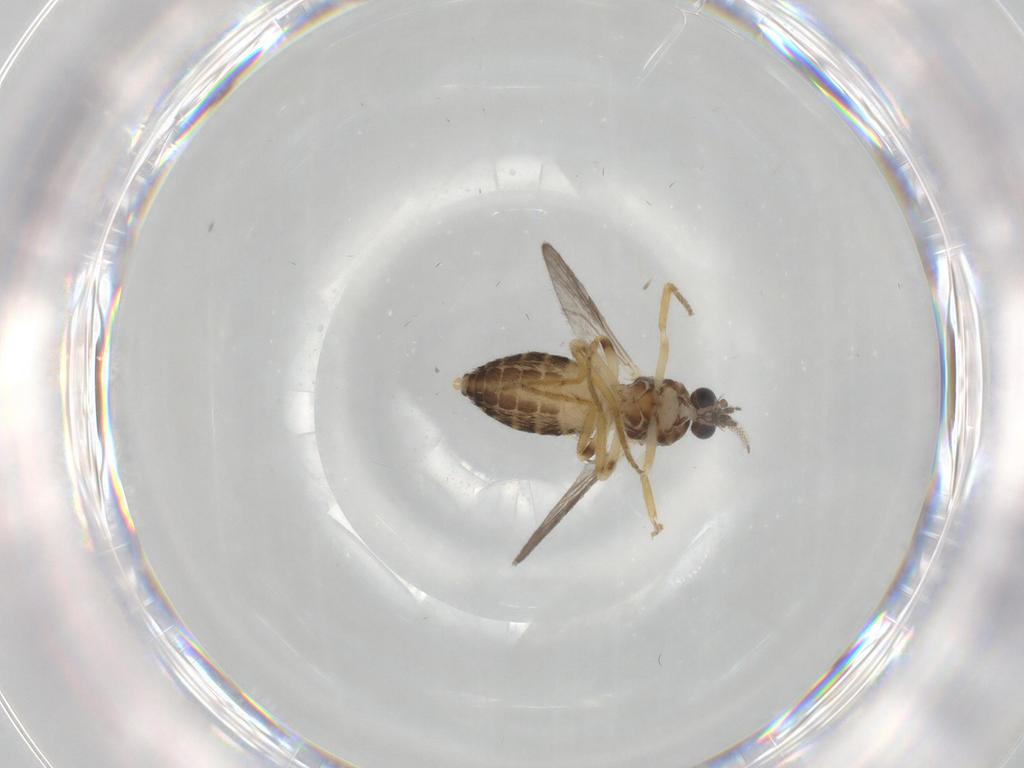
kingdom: Animalia
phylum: Arthropoda
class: Insecta
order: Diptera
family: Ceratopogonidae
